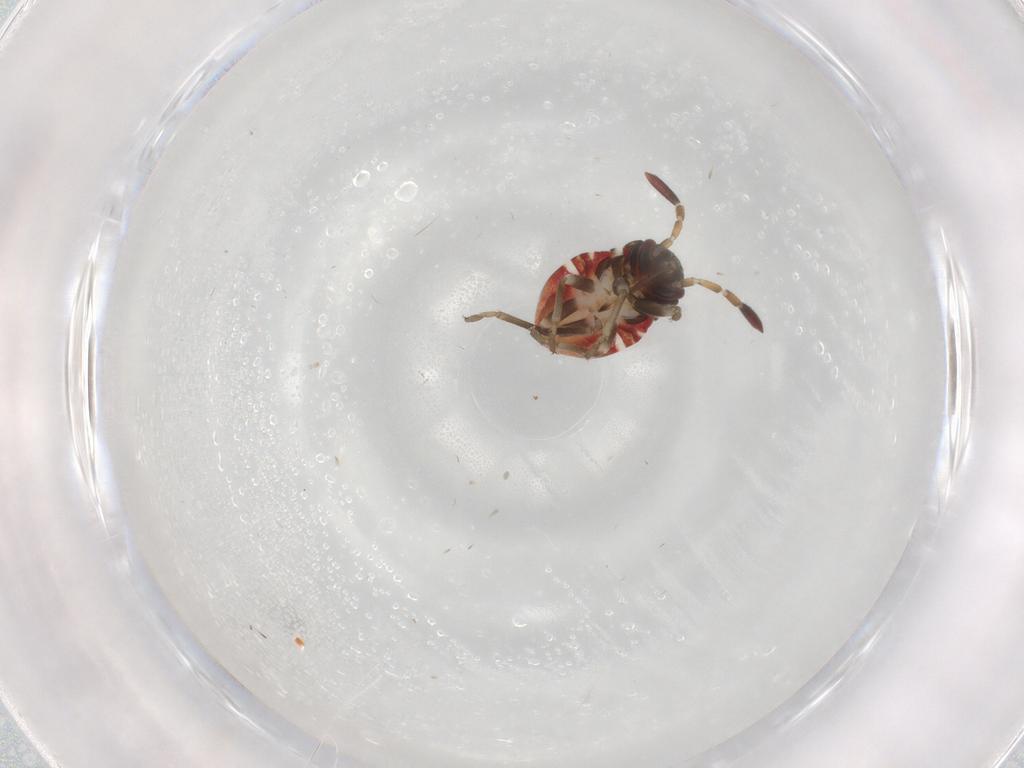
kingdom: Animalia
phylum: Arthropoda
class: Insecta
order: Hemiptera
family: Rhyparochromidae
